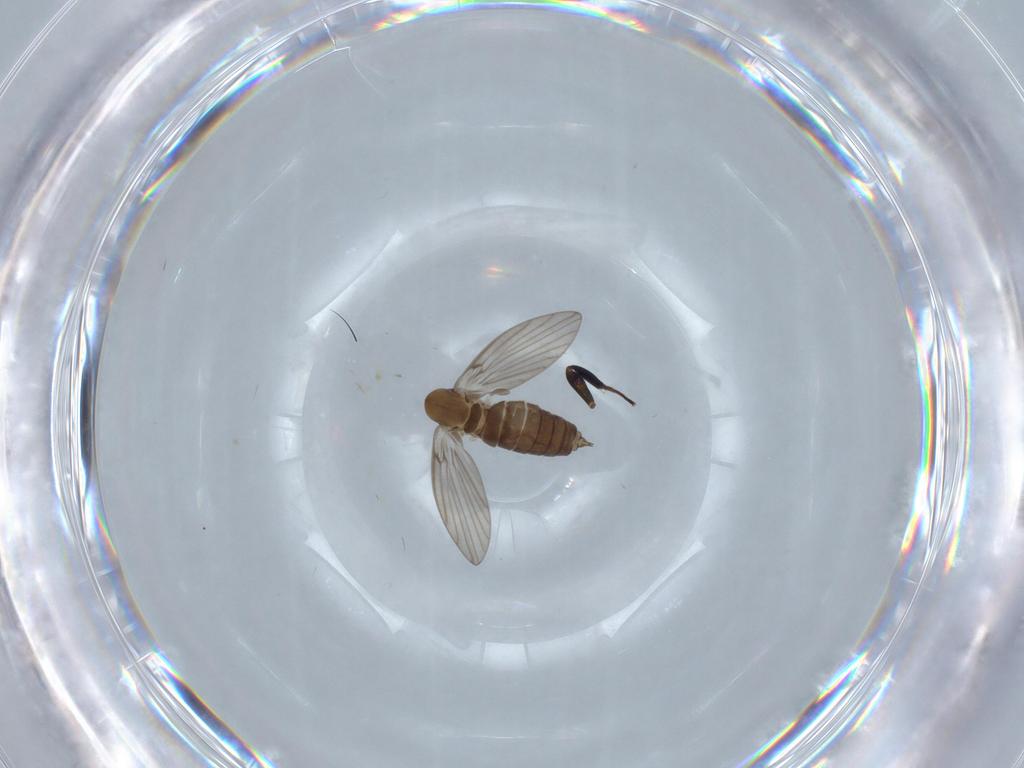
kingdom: Animalia
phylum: Arthropoda
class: Insecta
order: Diptera
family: Psychodidae
